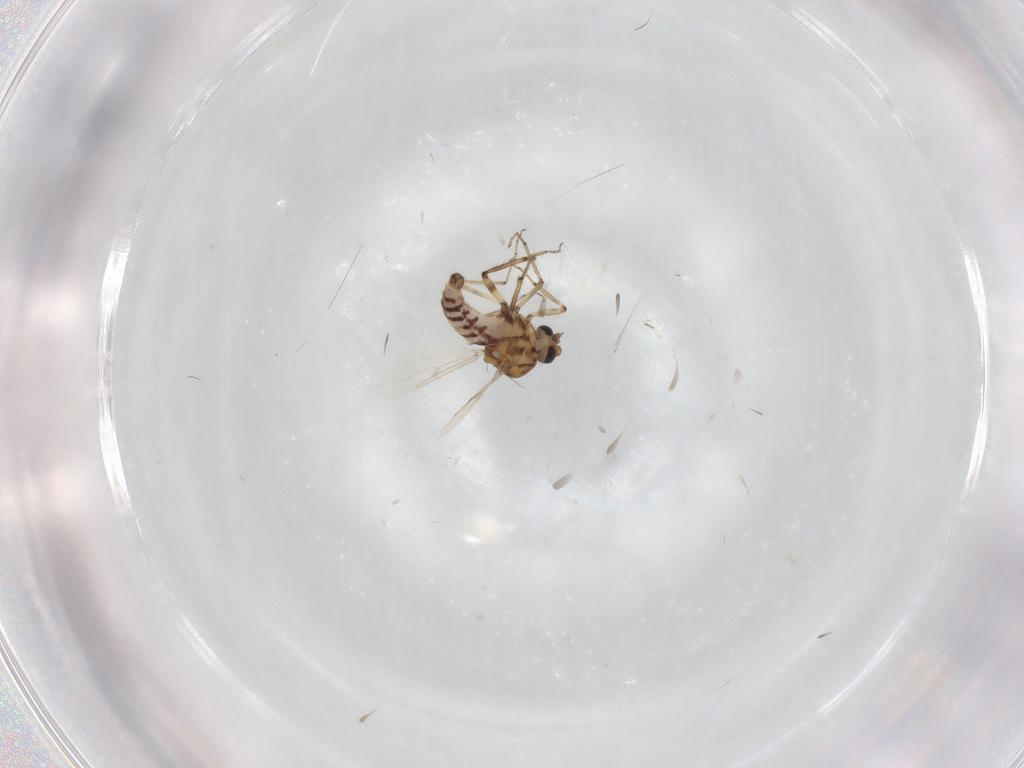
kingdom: Animalia
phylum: Arthropoda
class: Insecta
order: Diptera
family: Ceratopogonidae
